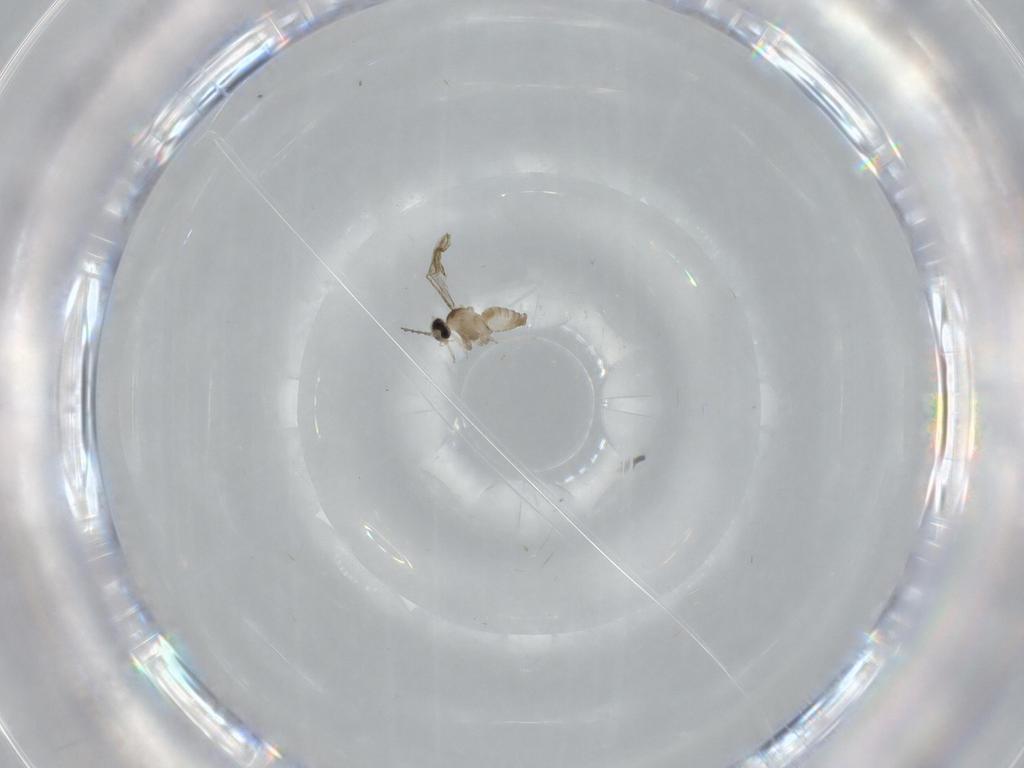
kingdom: Animalia
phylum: Arthropoda
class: Insecta
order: Diptera
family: Cecidomyiidae
